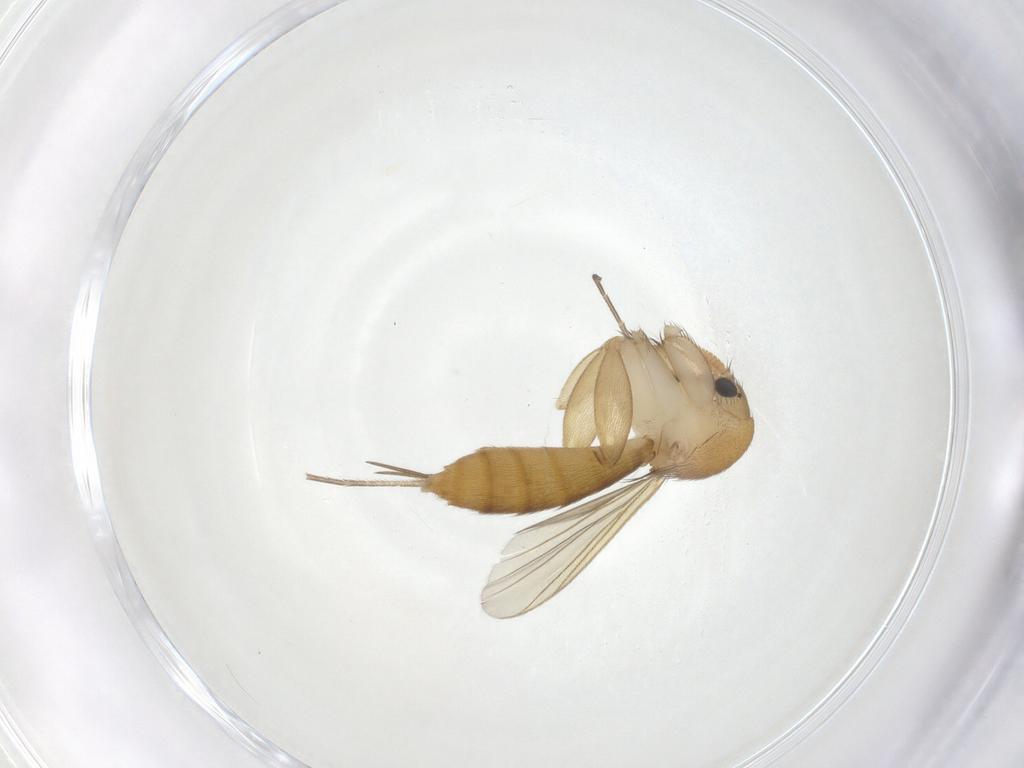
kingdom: Animalia
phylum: Arthropoda
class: Insecta
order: Diptera
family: Mycetophilidae
